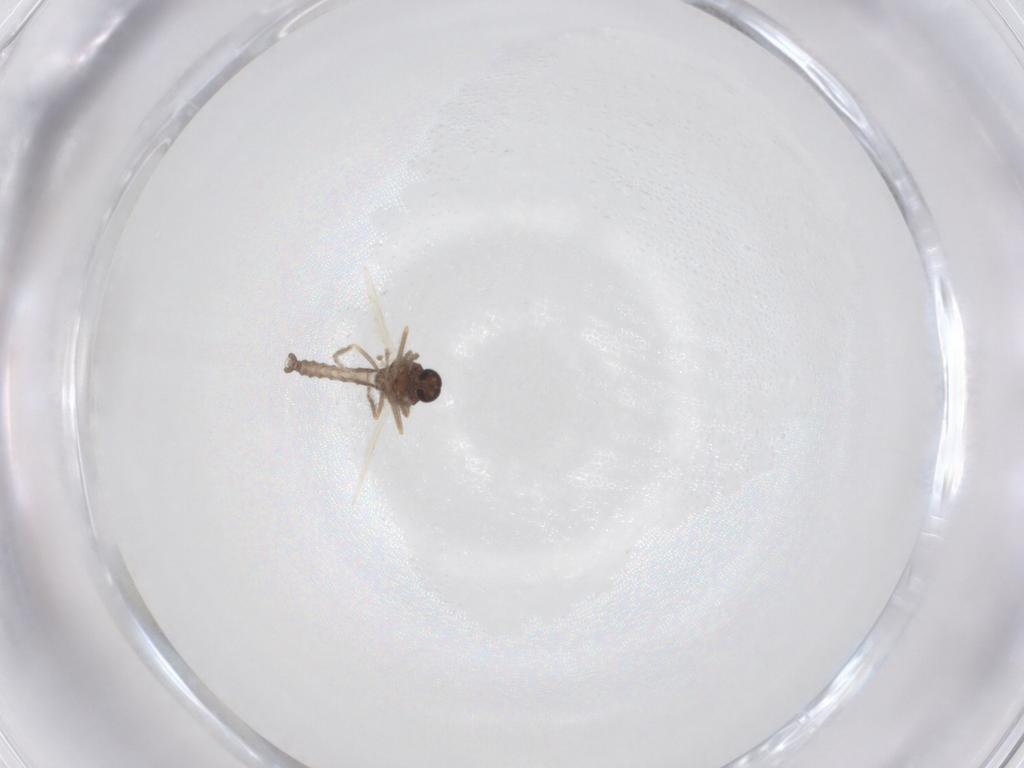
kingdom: Animalia
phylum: Arthropoda
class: Insecta
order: Diptera
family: Ceratopogonidae
